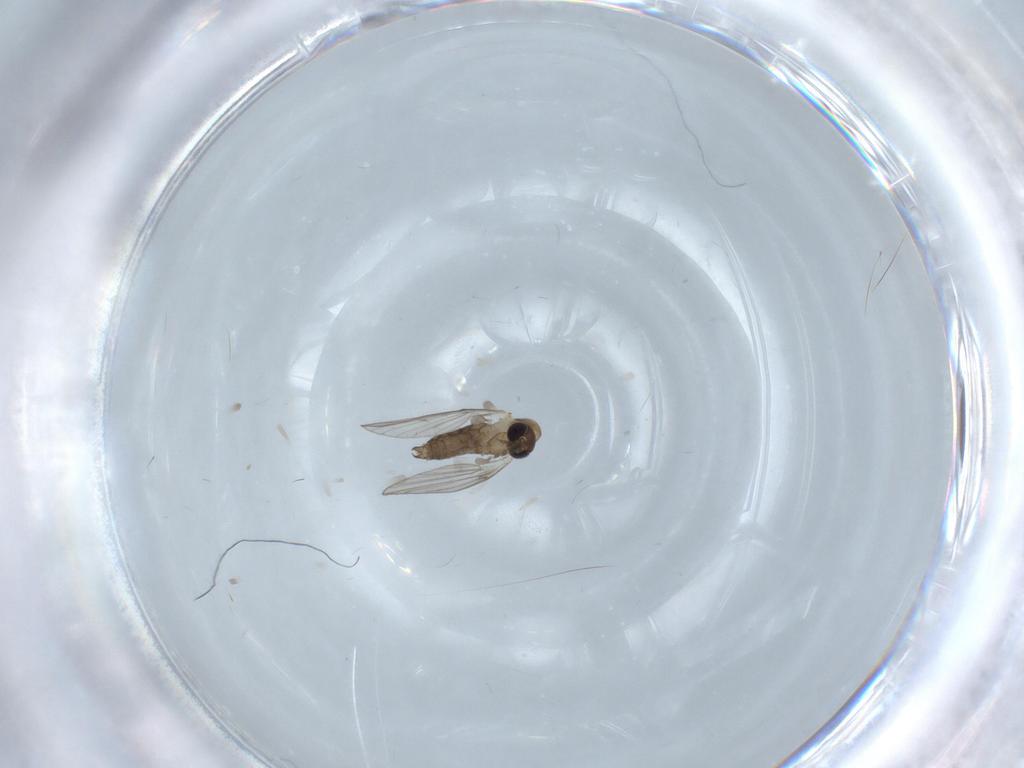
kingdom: Animalia
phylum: Arthropoda
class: Insecta
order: Diptera
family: Psychodidae
